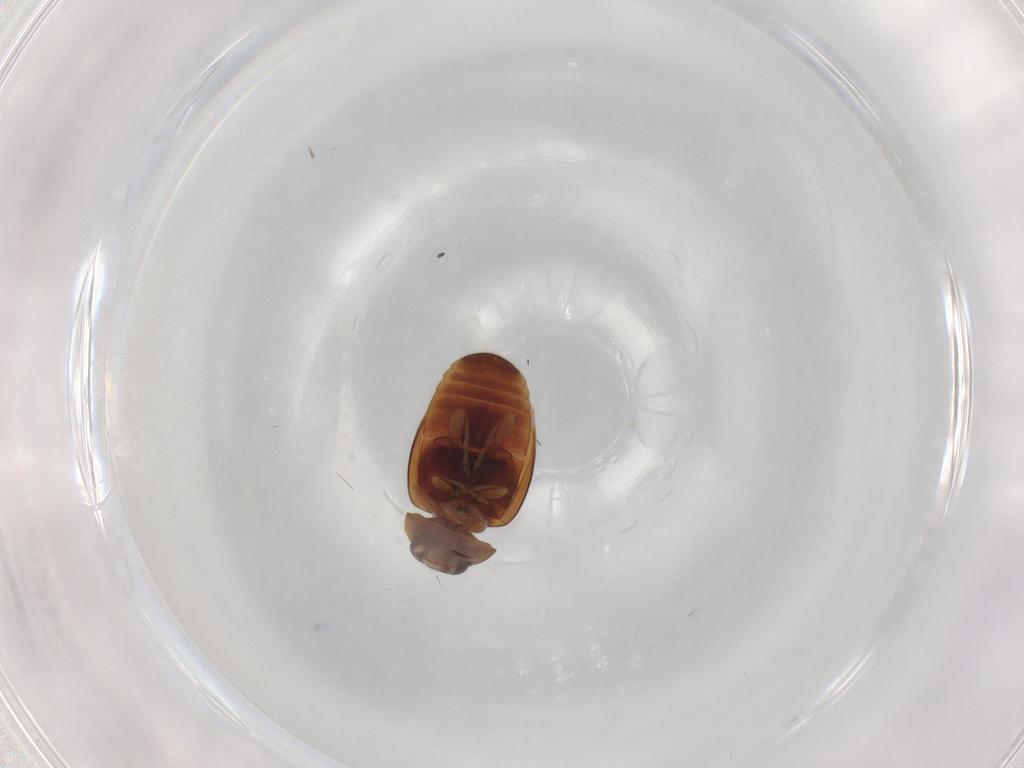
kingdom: Animalia
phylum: Arthropoda
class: Insecta
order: Coleoptera
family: Coccinellidae
